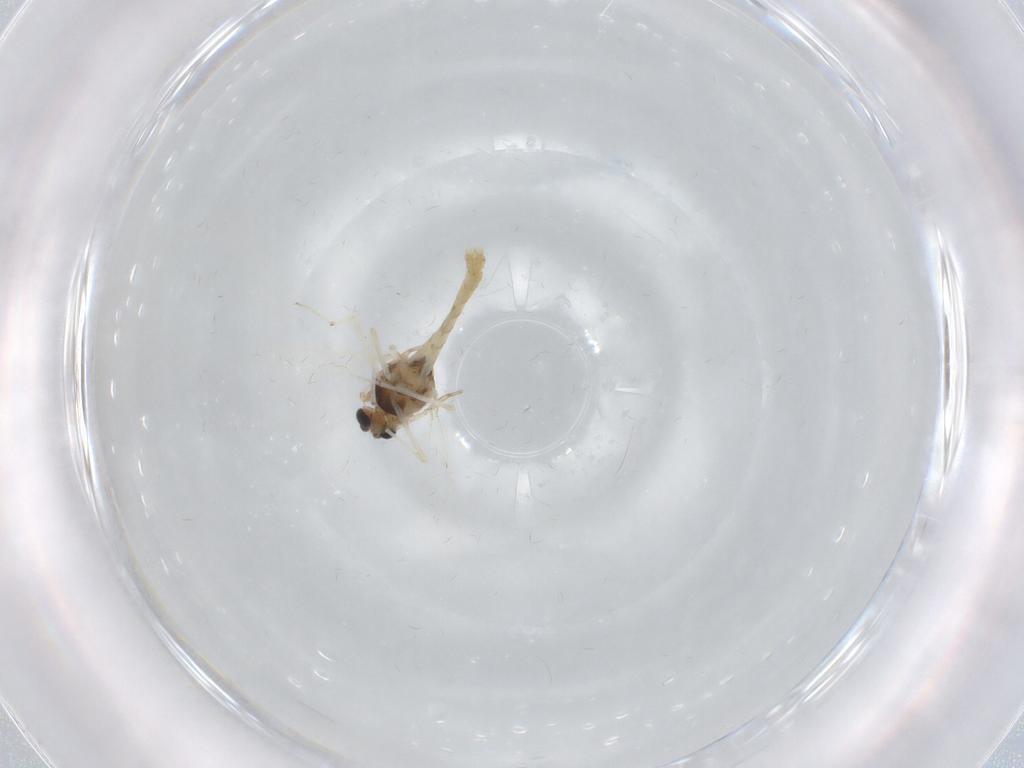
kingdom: Animalia
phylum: Arthropoda
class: Insecta
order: Diptera
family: Chironomidae
